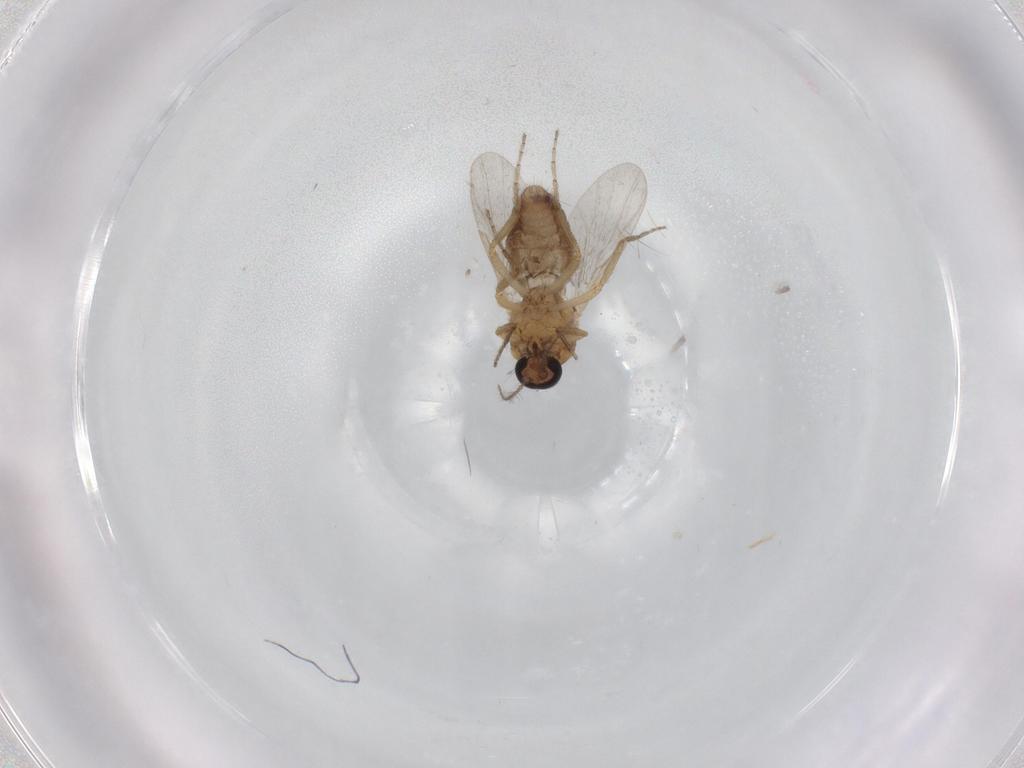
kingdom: Animalia
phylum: Arthropoda
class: Insecta
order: Diptera
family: Ceratopogonidae
